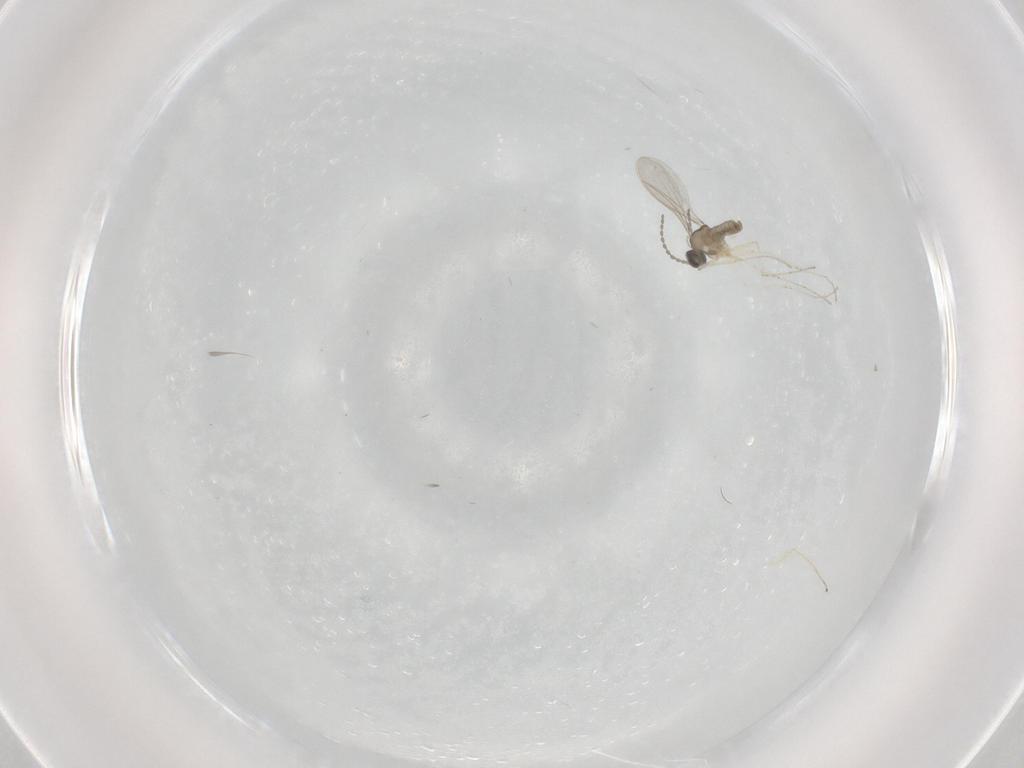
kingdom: Animalia
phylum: Arthropoda
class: Insecta
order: Diptera
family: Cecidomyiidae
